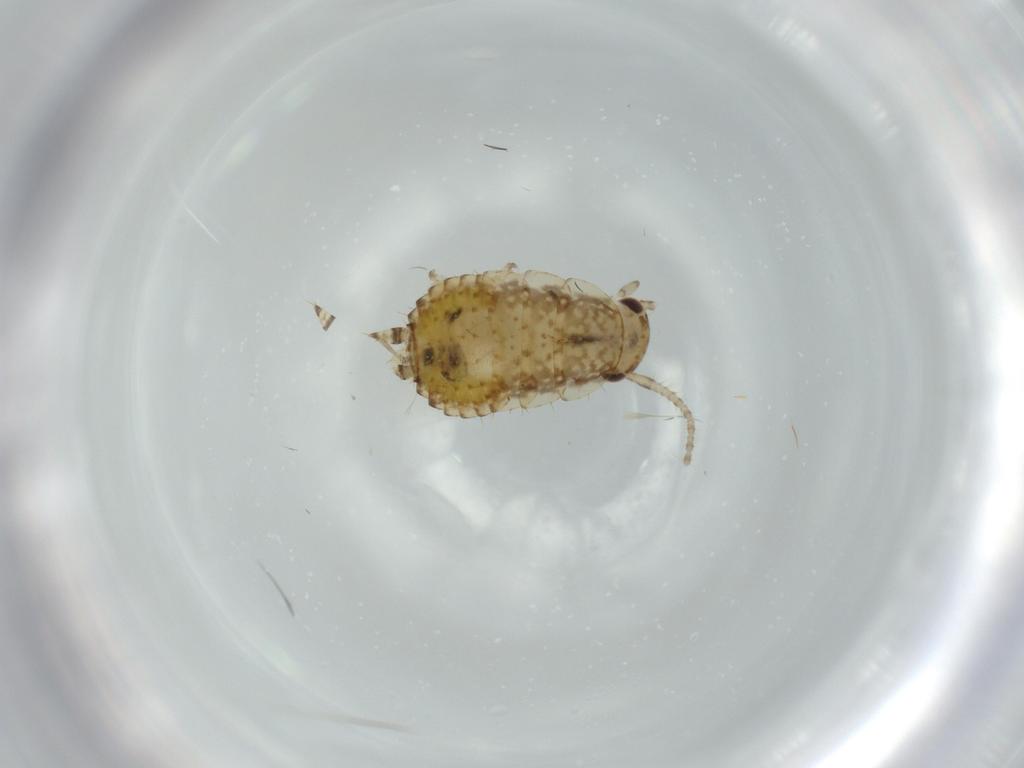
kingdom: Animalia
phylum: Arthropoda
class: Insecta
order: Blattodea
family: Ectobiidae
